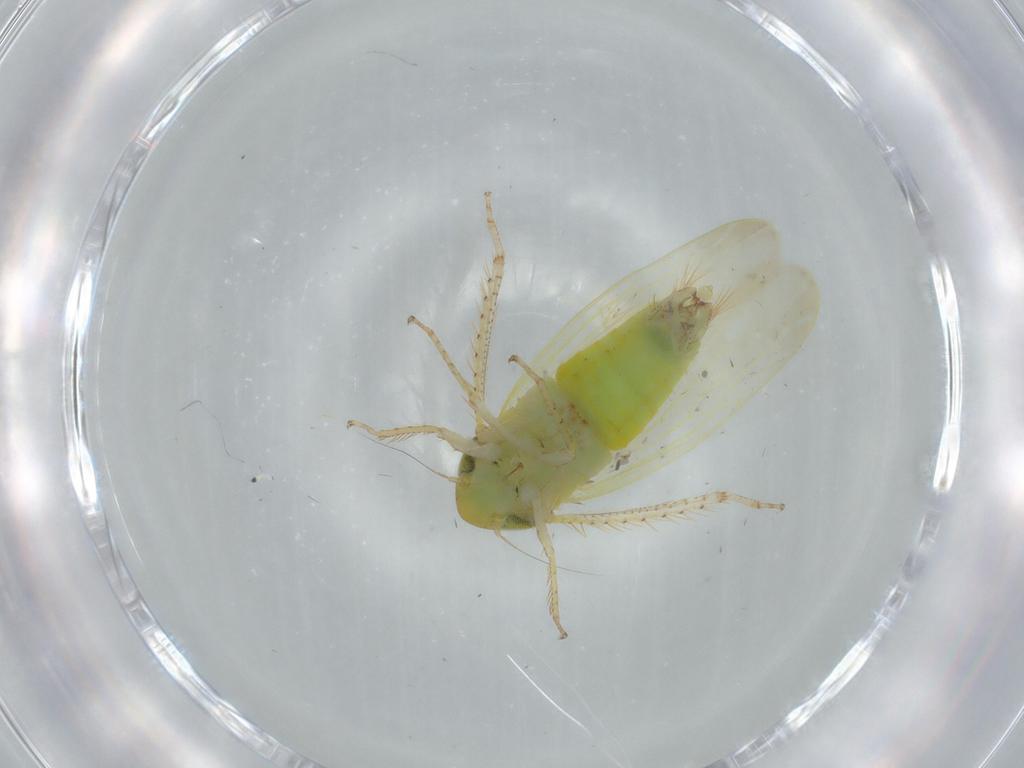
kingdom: Animalia
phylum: Arthropoda
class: Insecta
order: Hemiptera
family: Cicadellidae
